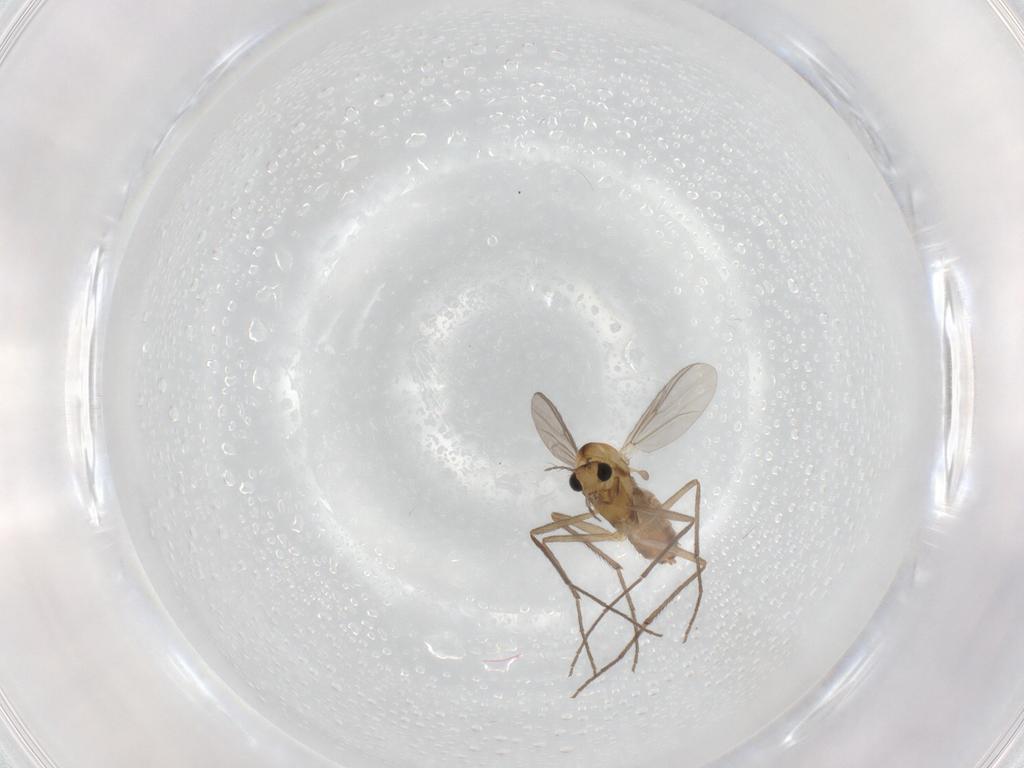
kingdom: Animalia
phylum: Arthropoda
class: Insecta
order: Diptera
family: Chironomidae
